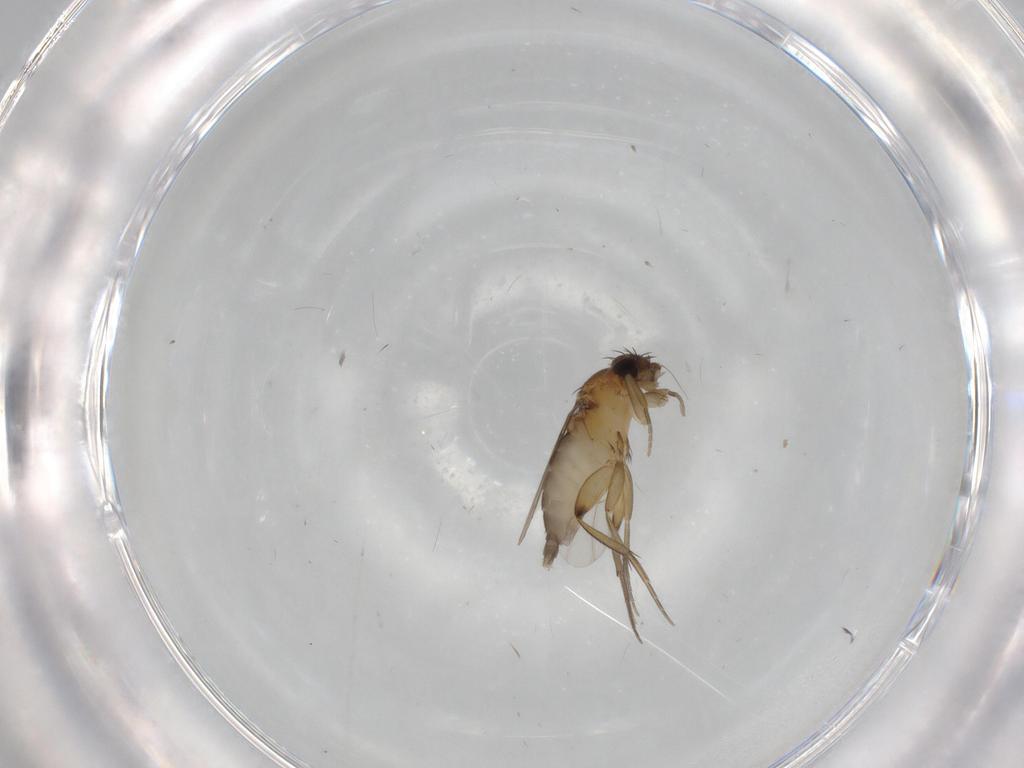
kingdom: Animalia
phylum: Arthropoda
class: Insecta
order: Diptera
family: Phoridae
